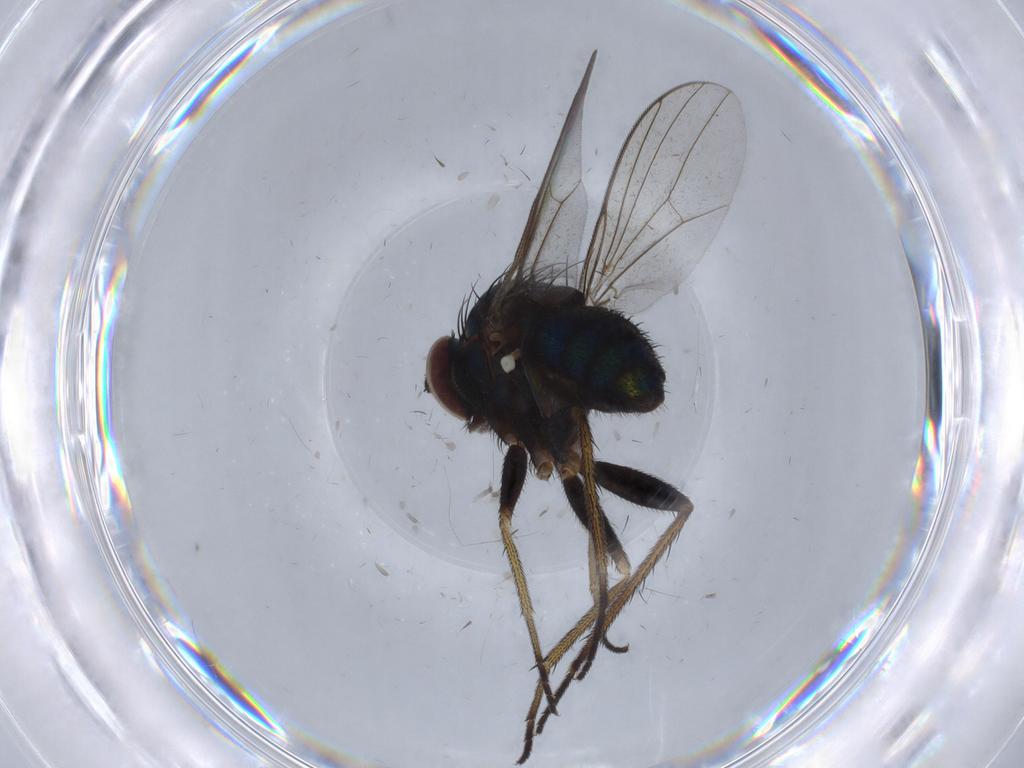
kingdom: Animalia
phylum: Arthropoda
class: Insecta
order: Diptera
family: Dolichopodidae
